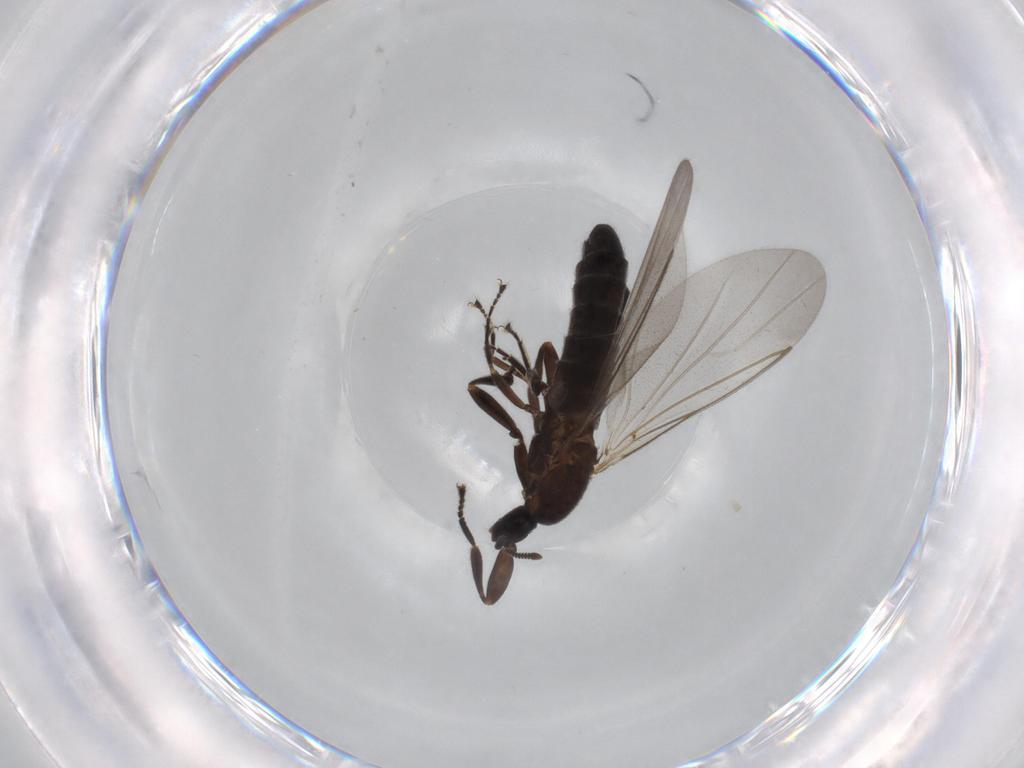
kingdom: Animalia
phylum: Arthropoda
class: Insecta
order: Diptera
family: Scatopsidae
